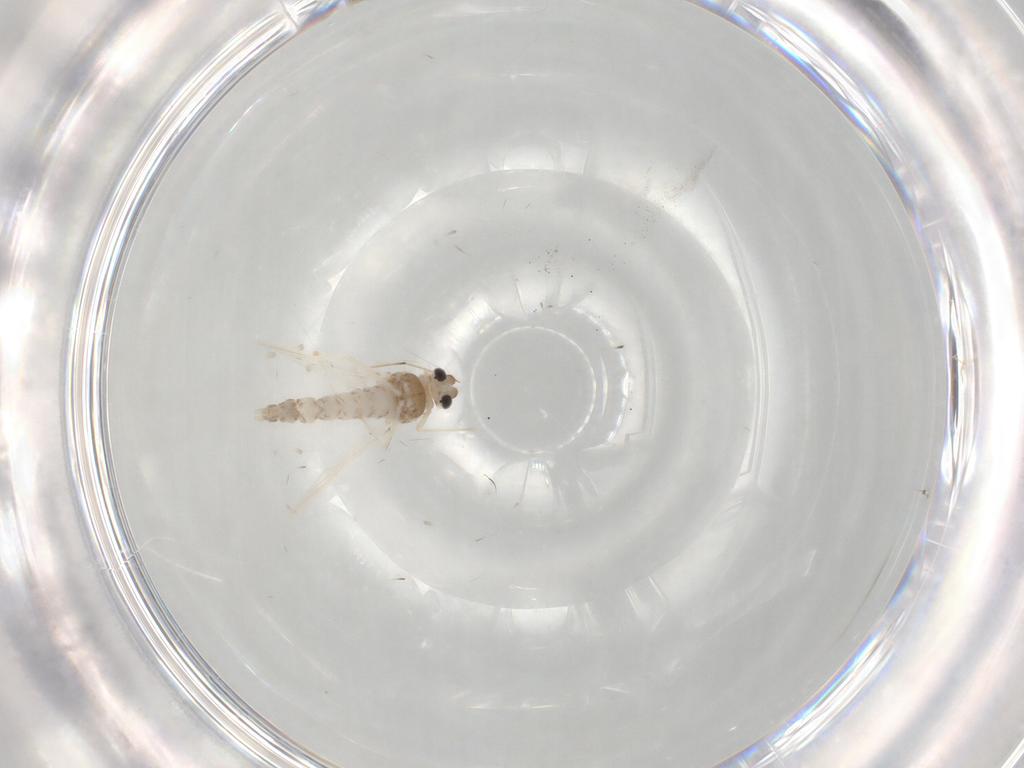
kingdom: Animalia
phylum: Arthropoda
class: Insecta
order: Diptera
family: Chironomidae
